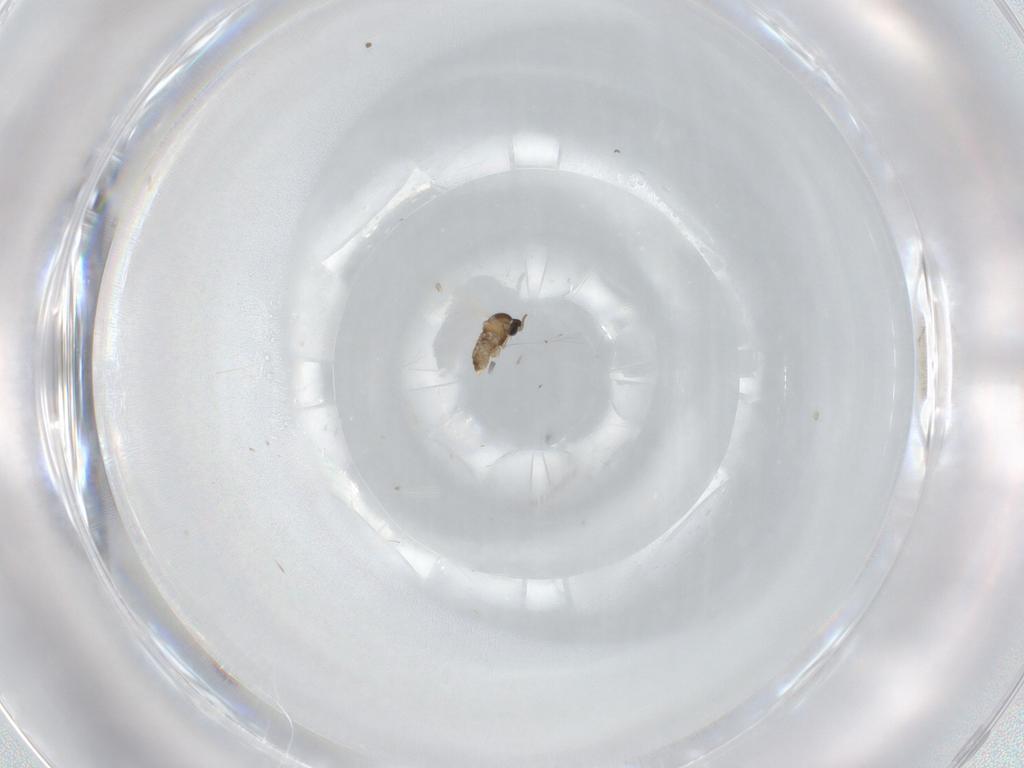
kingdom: Animalia
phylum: Arthropoda
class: Insecta
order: Diptera
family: Cecidomyiidae
